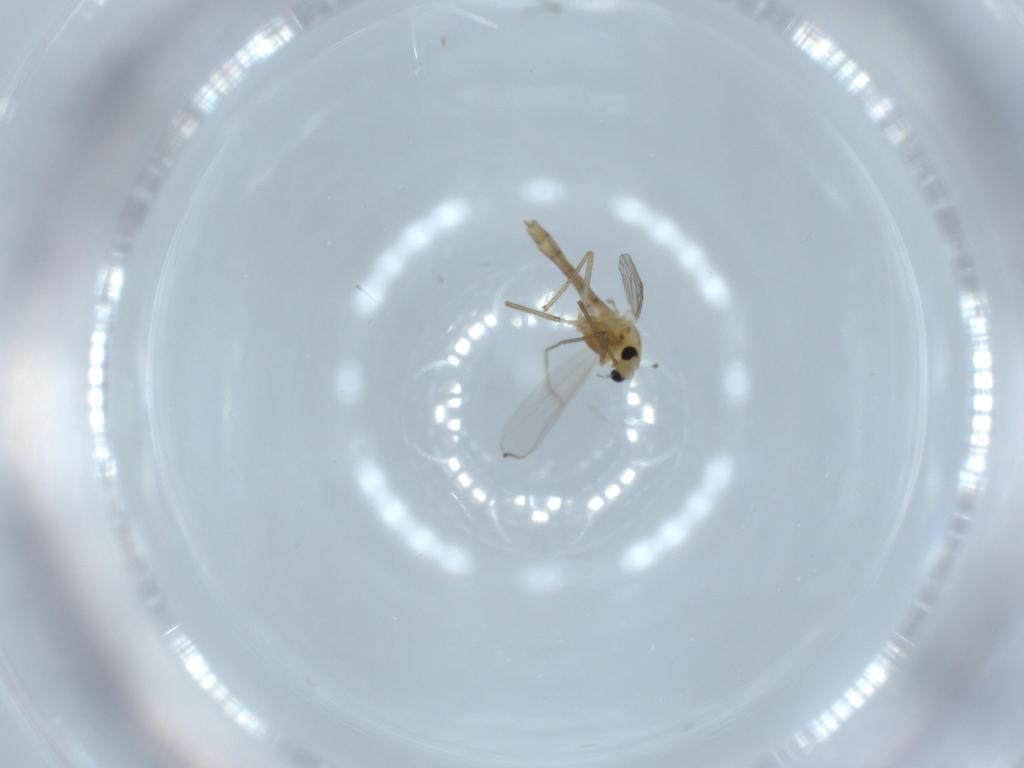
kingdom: Animalia
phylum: Arthropoda
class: Insecta
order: Diptera
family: Chironomidae
